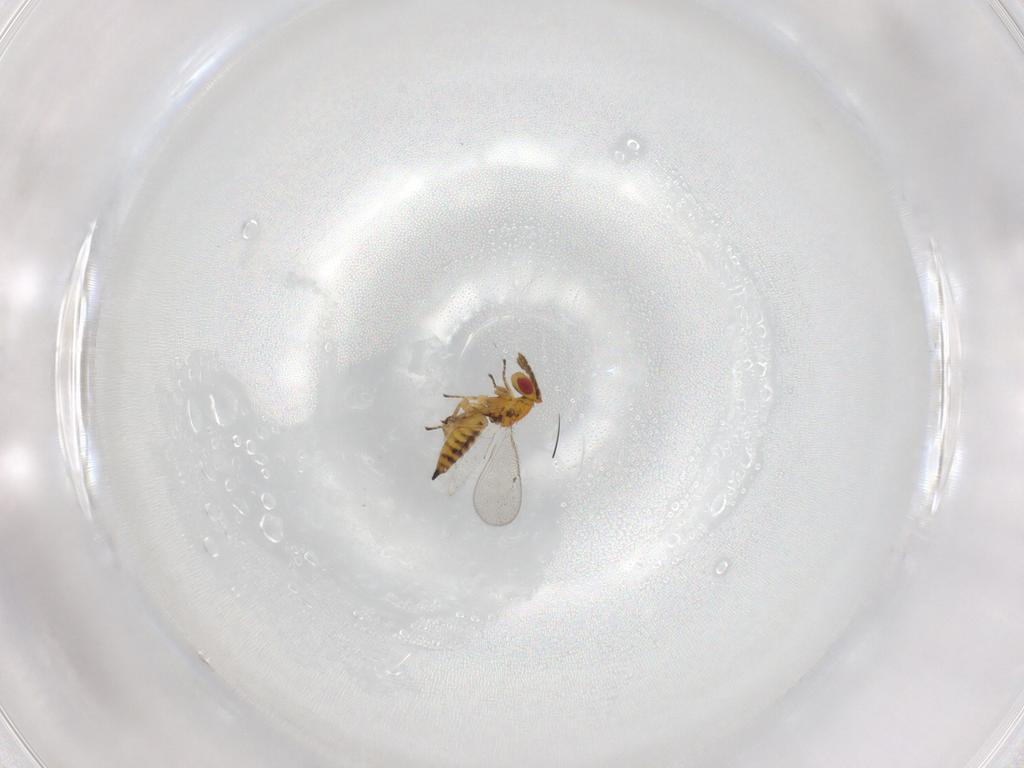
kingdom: Animalia
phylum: Arthropoda
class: Insecta
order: Hymenoptera
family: Eulophidae
